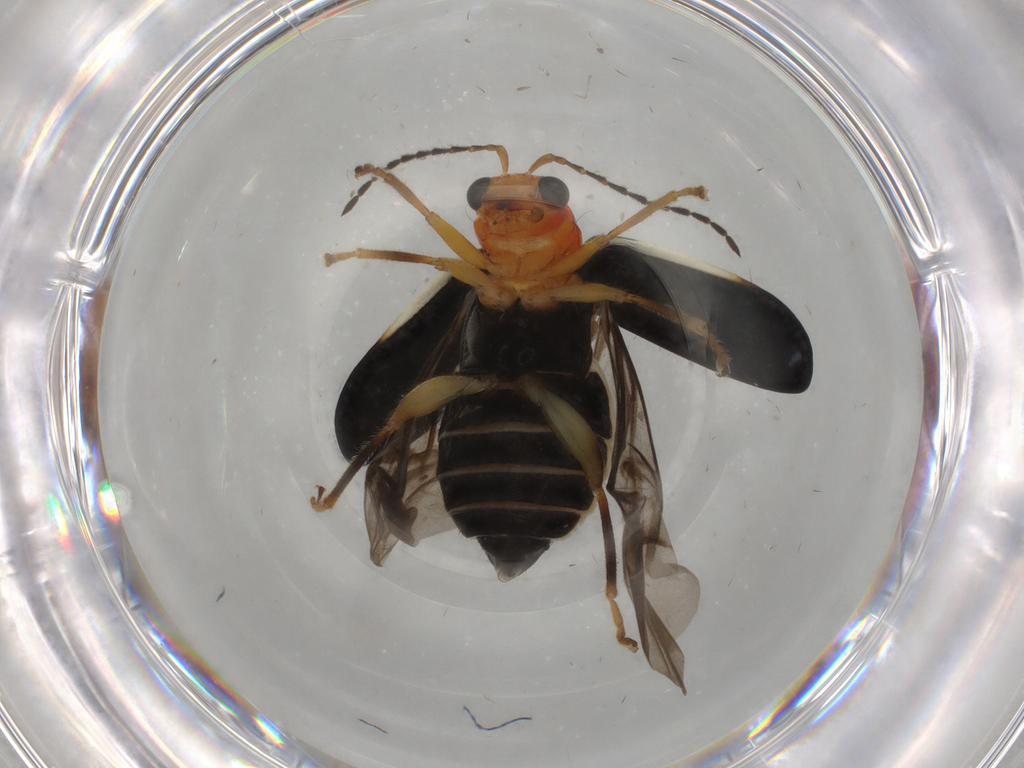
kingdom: Animalia
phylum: Arthropoda
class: Insecta
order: Coleoptera
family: Chrysomelidae
